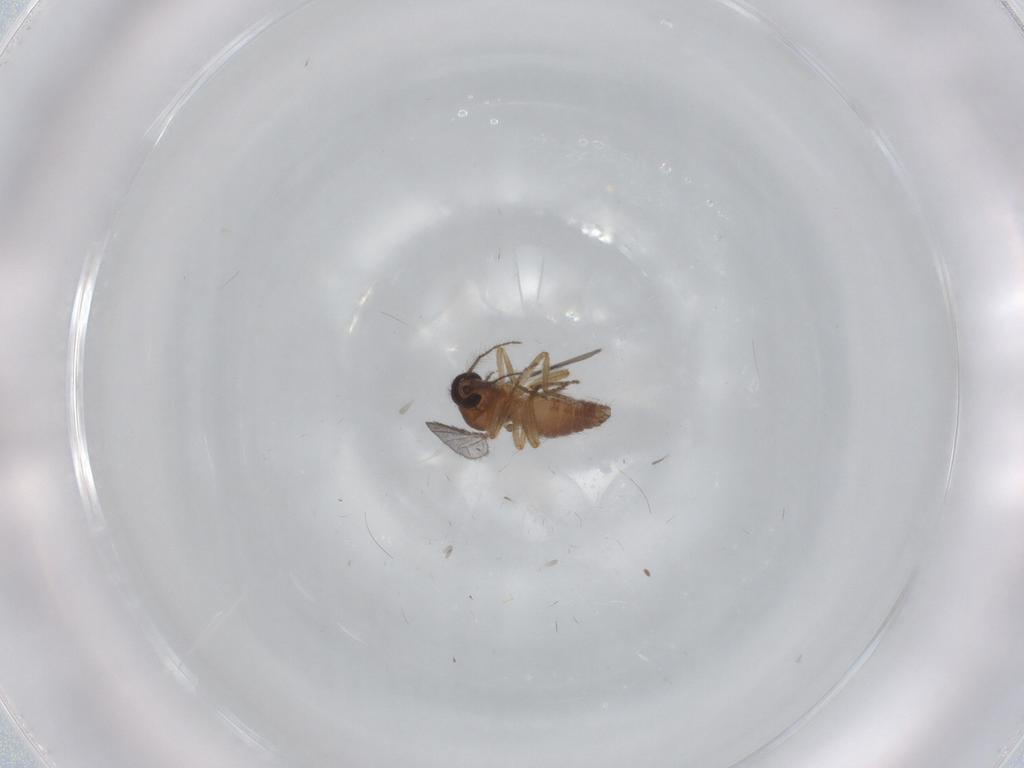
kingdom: Animalia
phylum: Arthropoda
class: Insecta
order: Diptera
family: Ceratopogonidae
